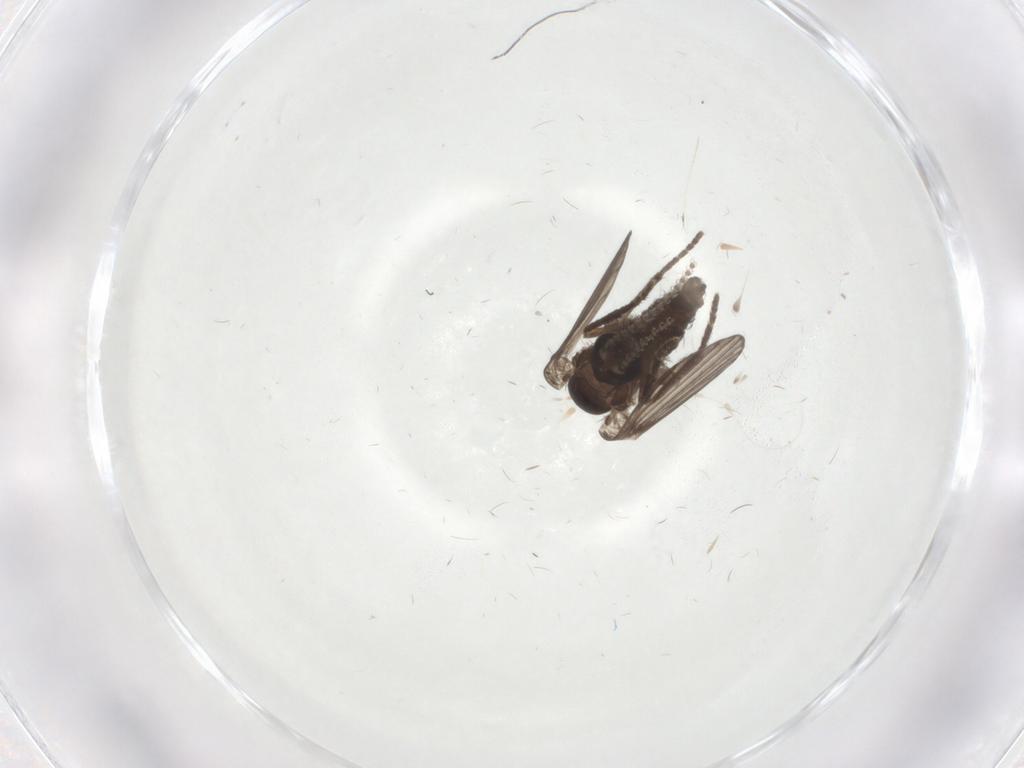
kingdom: Animalia
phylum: Arthropoda
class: Insecta
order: Diptera
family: Psychodidae
